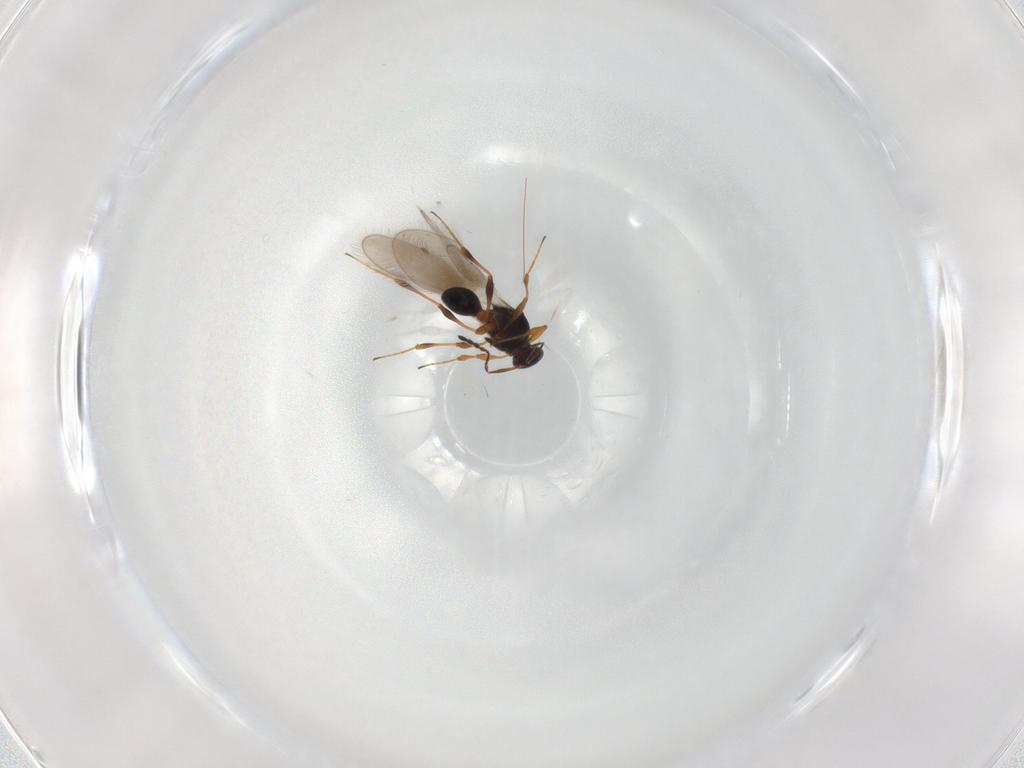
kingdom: Animalia
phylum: Arthropoda
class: Insecta
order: Hymenoptera
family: Platygastridae
